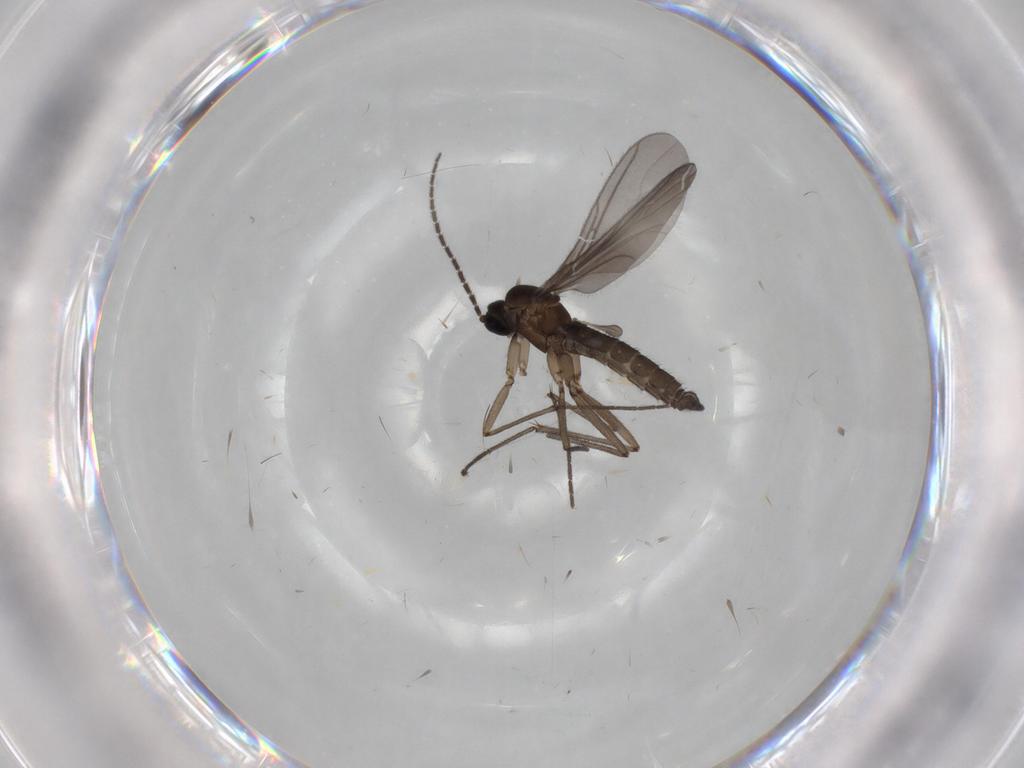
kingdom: Animalia
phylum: Arthropoda
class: Insecta
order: Diptera
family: Sciaridae
